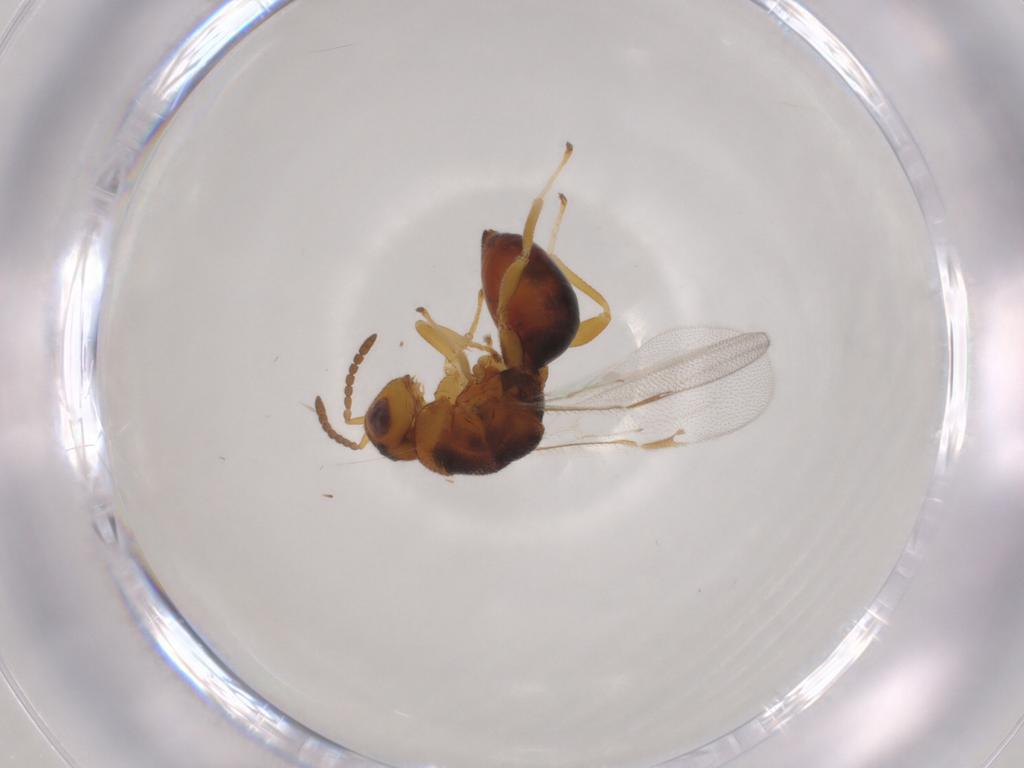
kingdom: Animalia
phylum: Arthropoda
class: Insecta
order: Hymenoptera
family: Eurytomidae
